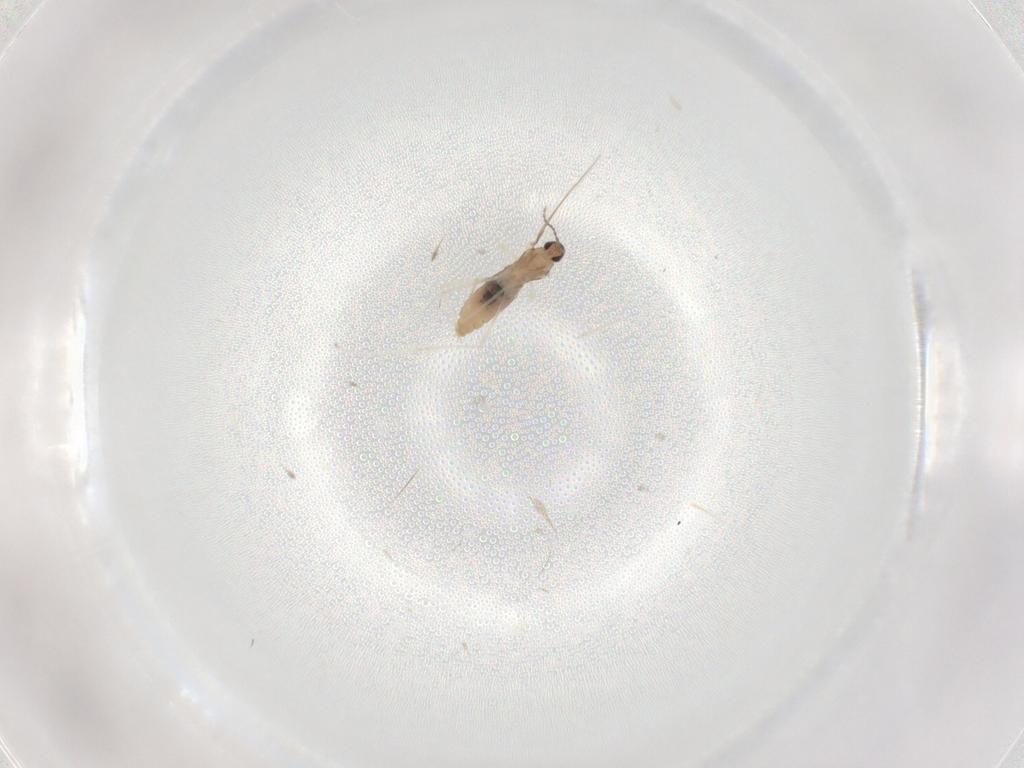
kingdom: Animalia
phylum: Arthropoda
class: Insecta
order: Diptera
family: Cecidomyiidae
